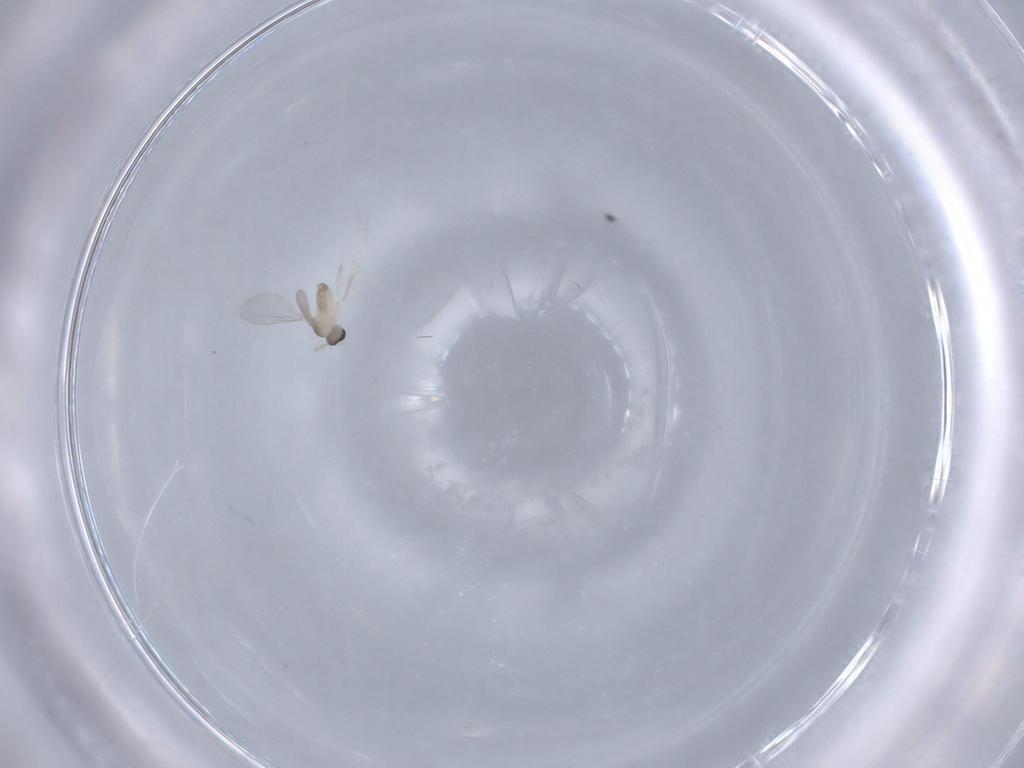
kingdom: Animalia
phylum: Arthropoda
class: Insecta
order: Diptera
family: Cecidomyiidae
